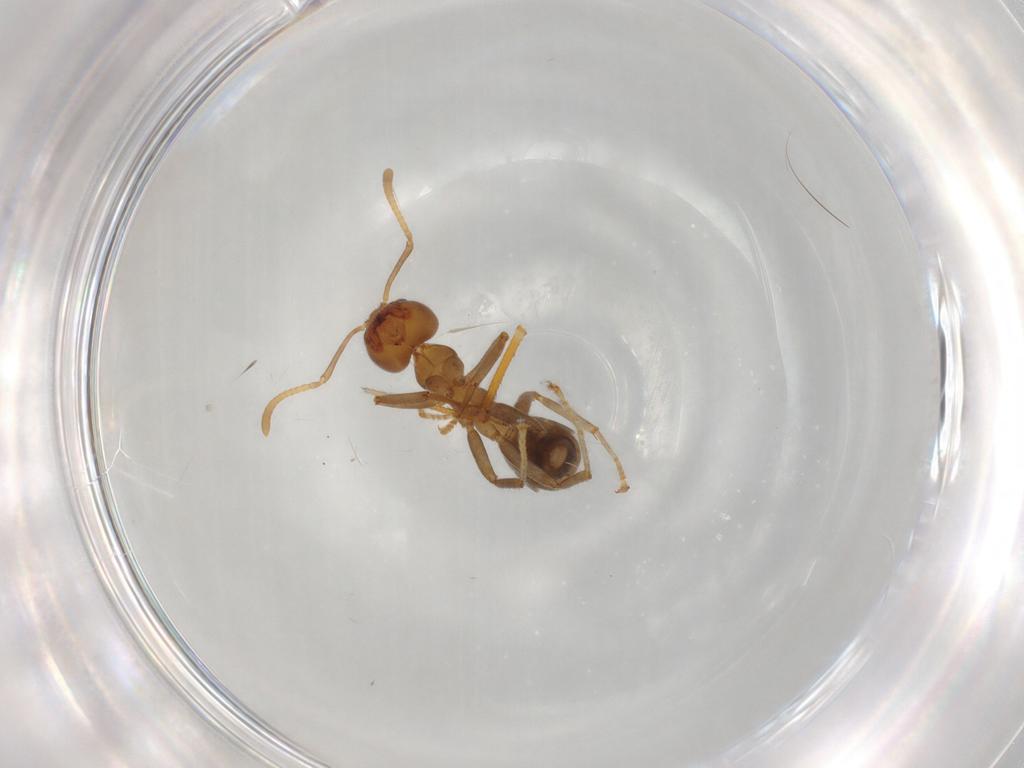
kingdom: Animalia
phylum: Arthropoda
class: Insecta
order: Hymenoptera
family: Formicidae
